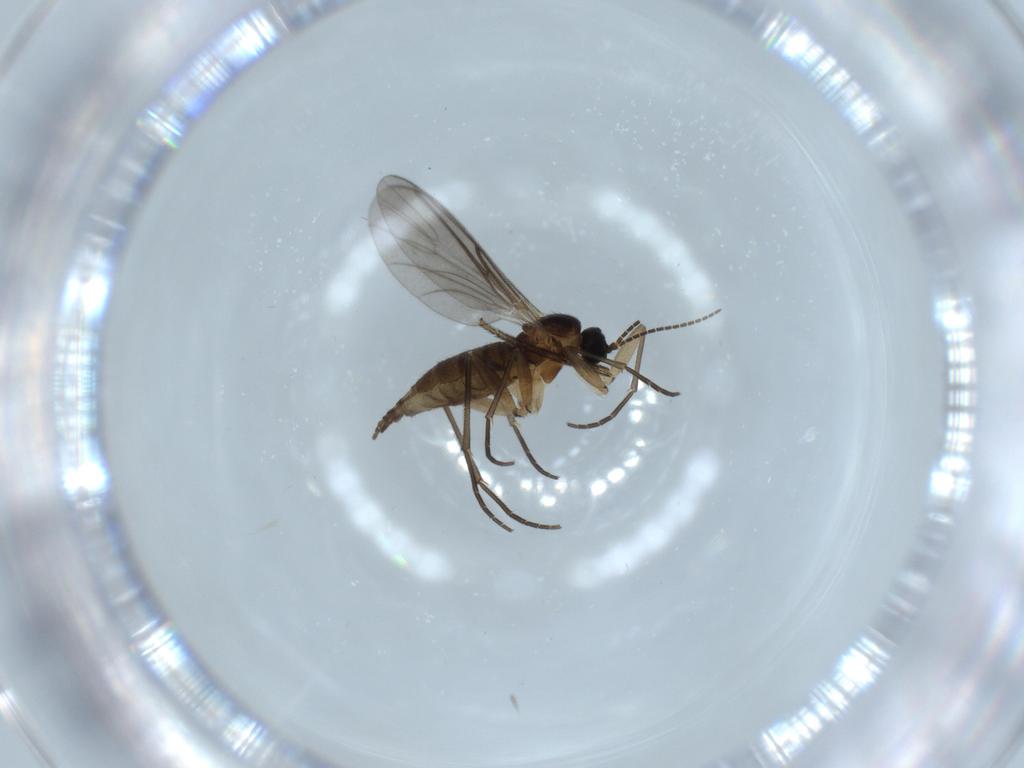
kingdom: Animalia
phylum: Arthropoda
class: Insecta
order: Diptera
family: Sciaridae
